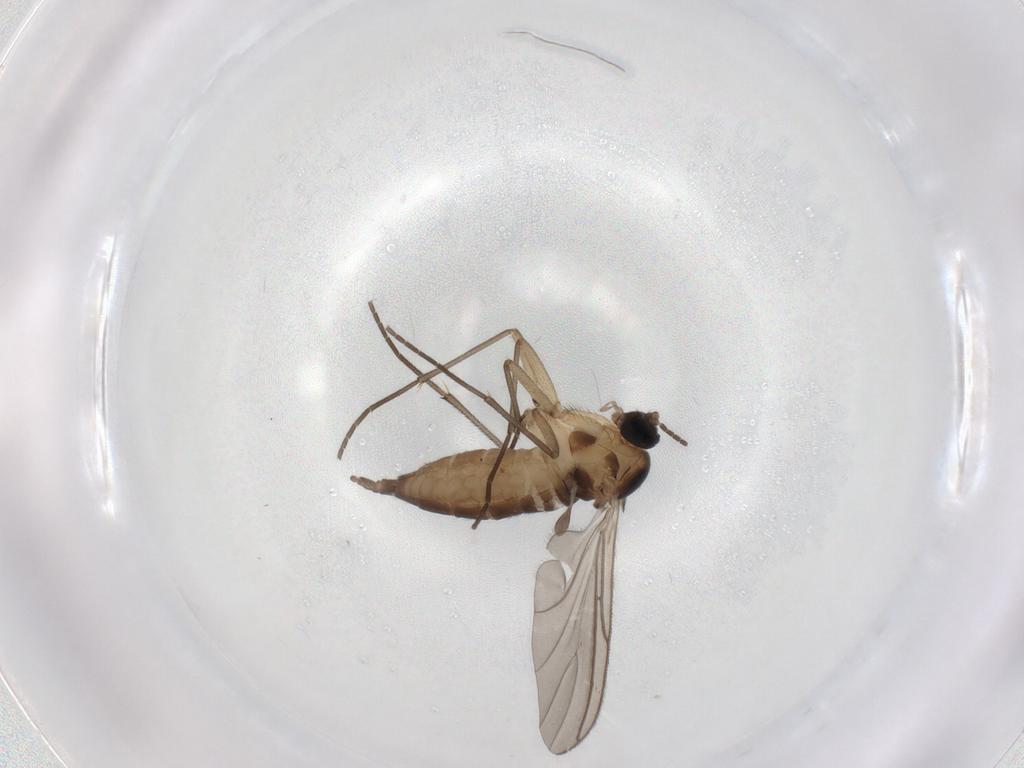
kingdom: Animalia
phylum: Arthropoda
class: Insecta
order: Diptera
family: Sciaridae
